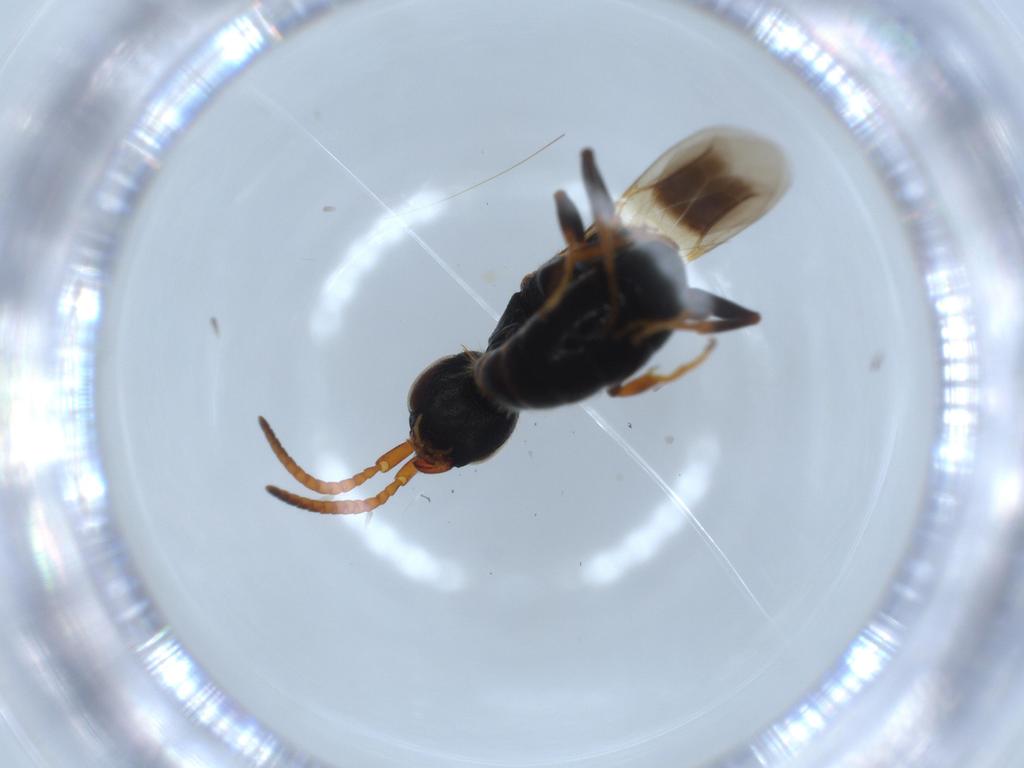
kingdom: Animalia
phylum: Arthropoda
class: Insecta
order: Hymenoptera
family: Bethylidae
